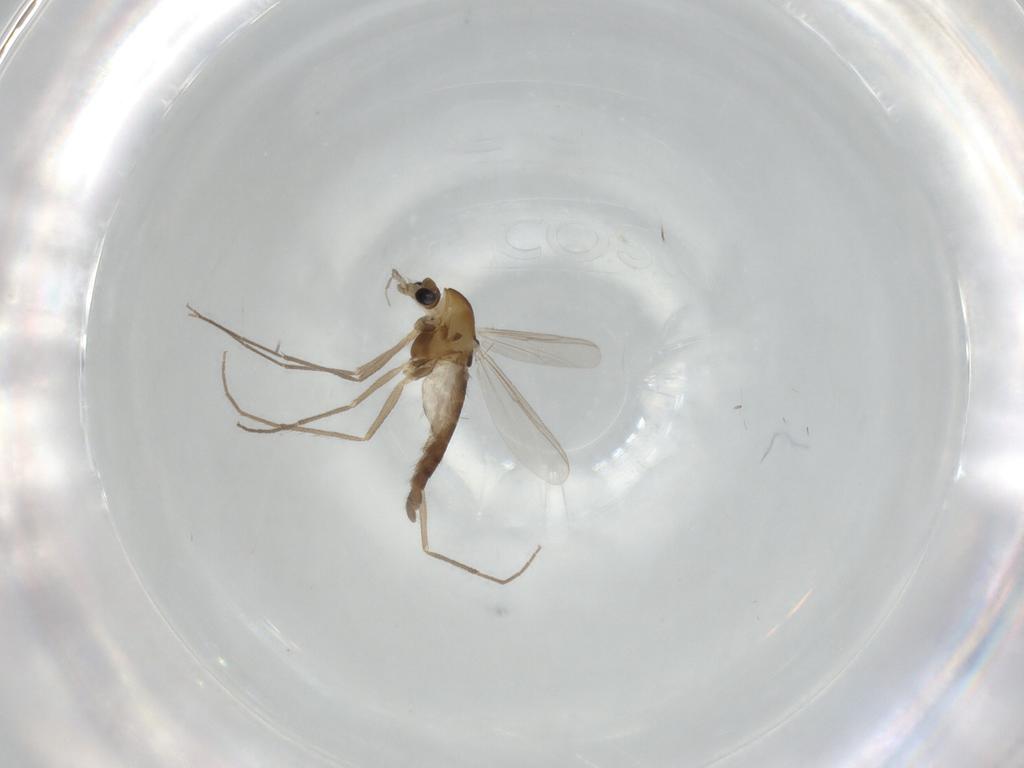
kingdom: Animalia
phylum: Arthropoda
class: Insecta
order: Diptera
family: Chironomidae
